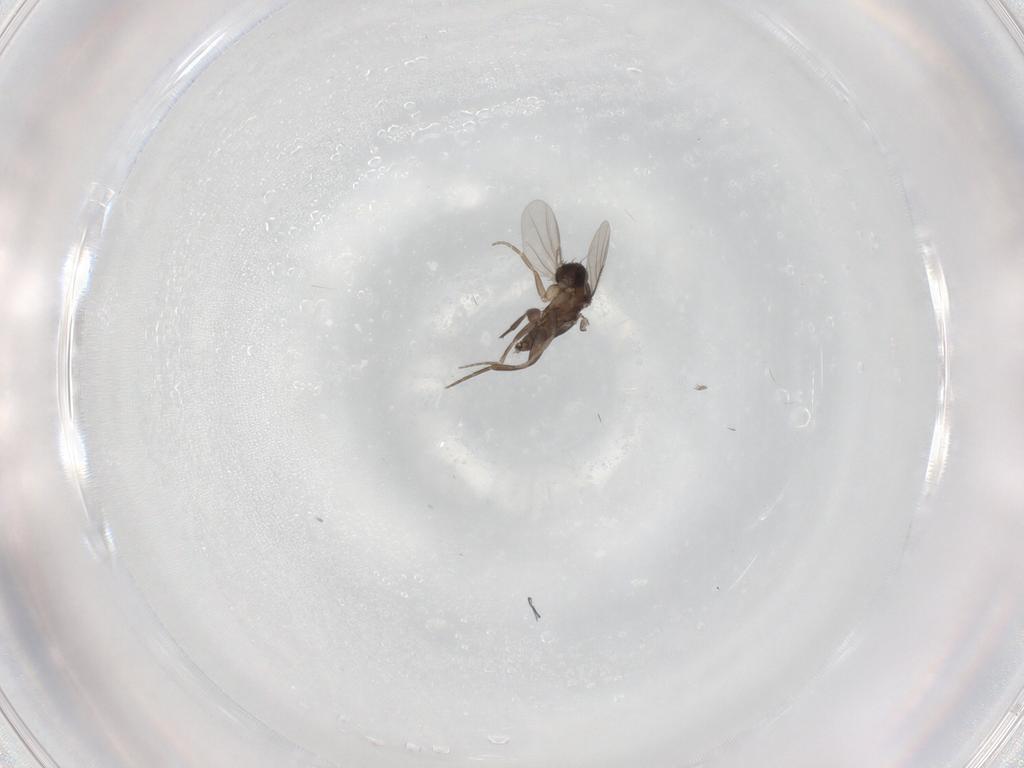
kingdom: Animalia
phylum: Arthropoda
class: Insecta
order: Diptera
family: Phoridae
